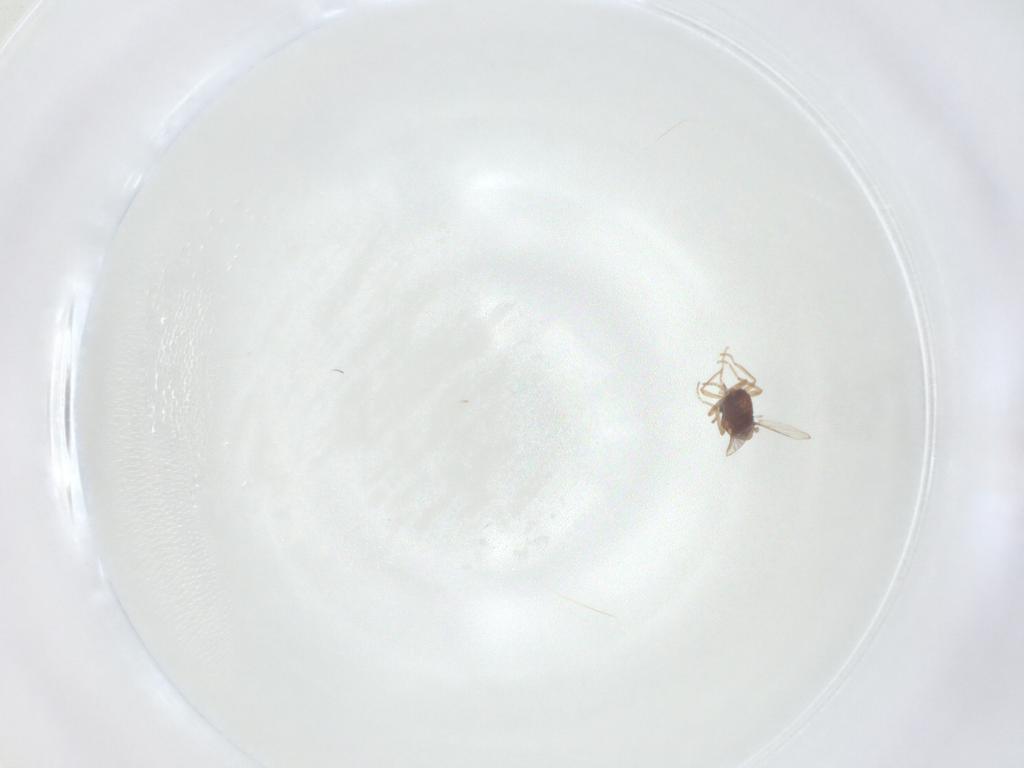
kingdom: Animalia
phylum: Arthropoda
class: Insecta
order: Diptera
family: Ceratopogonidae
